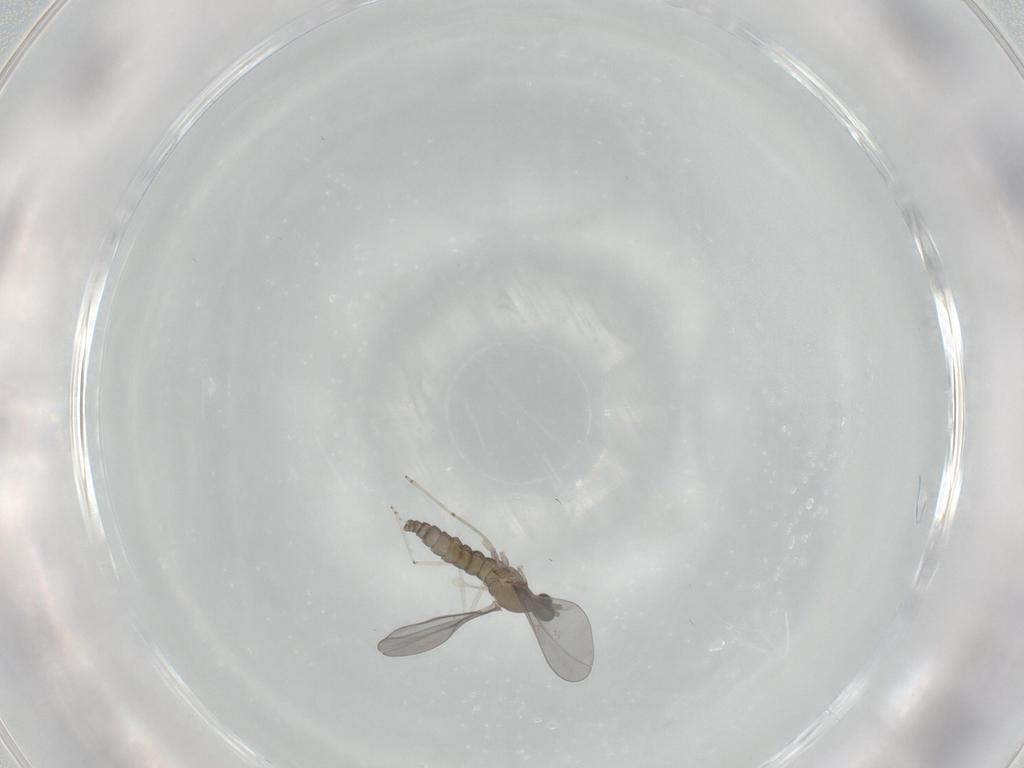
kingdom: Animalia
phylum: Arthropoda
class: Insecta
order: Diptera
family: Cecidomyiidae
